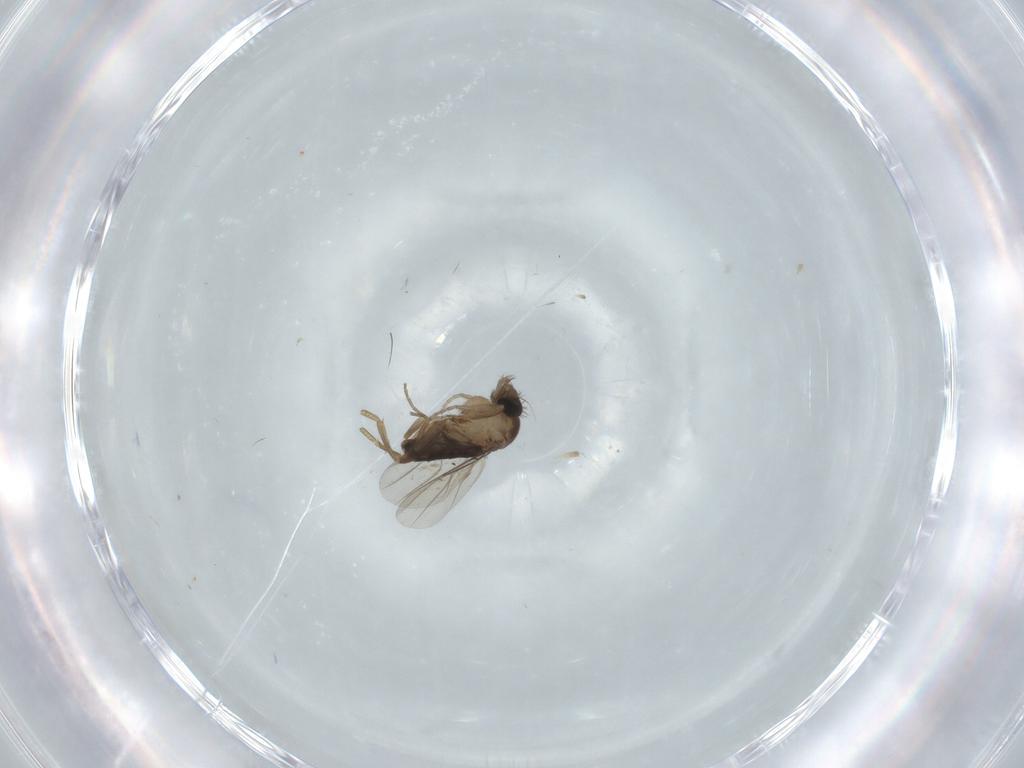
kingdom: Animalia
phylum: Arthropoda
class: Insecta
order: Diptera
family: Phoridae
